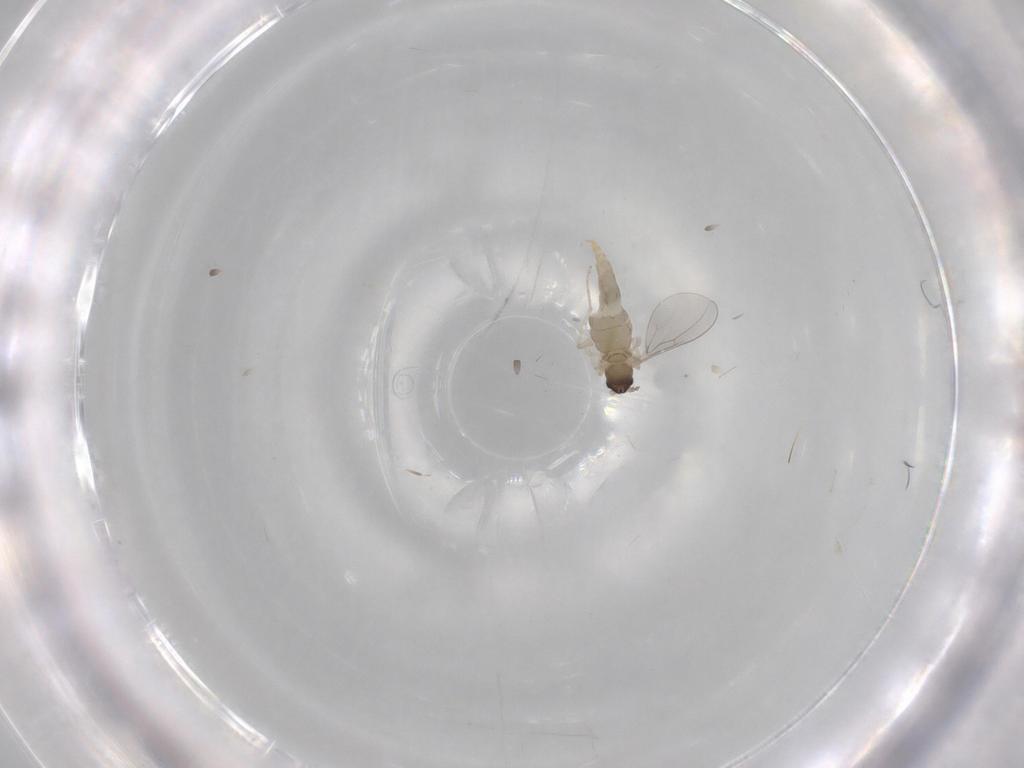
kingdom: Animalia
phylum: Arthropoda
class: Insecta
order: Diptera
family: Cecidomyiidae
